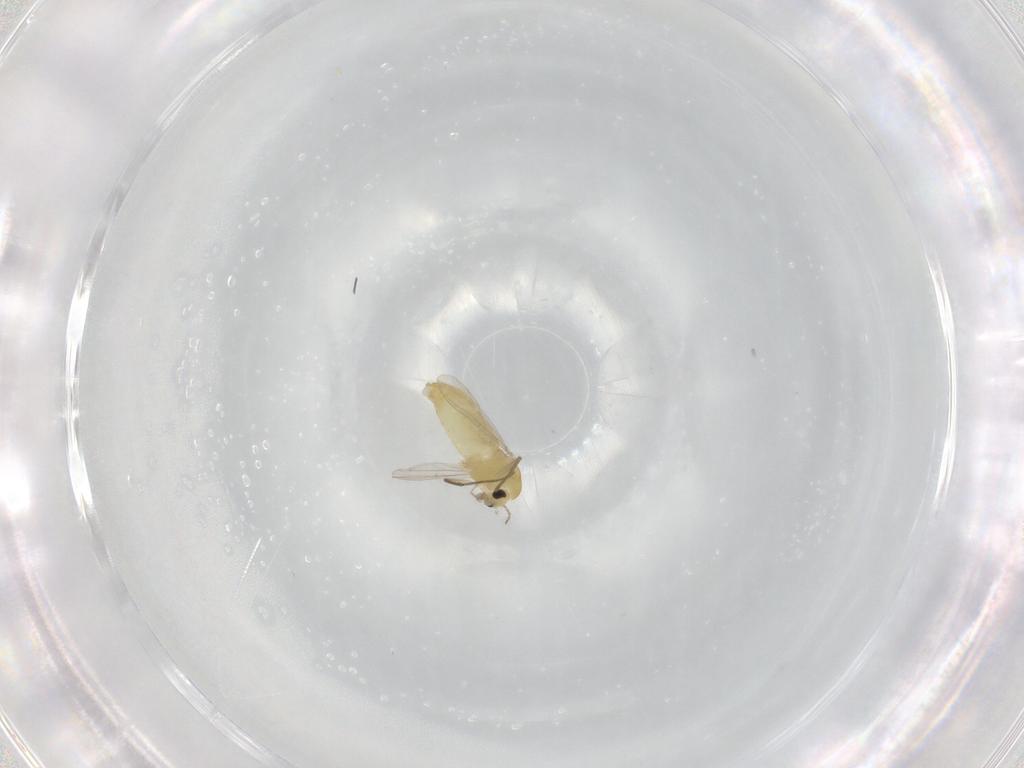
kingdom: Animalia
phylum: Arthropoda
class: Insecta
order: Diptera
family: Chironomidae
